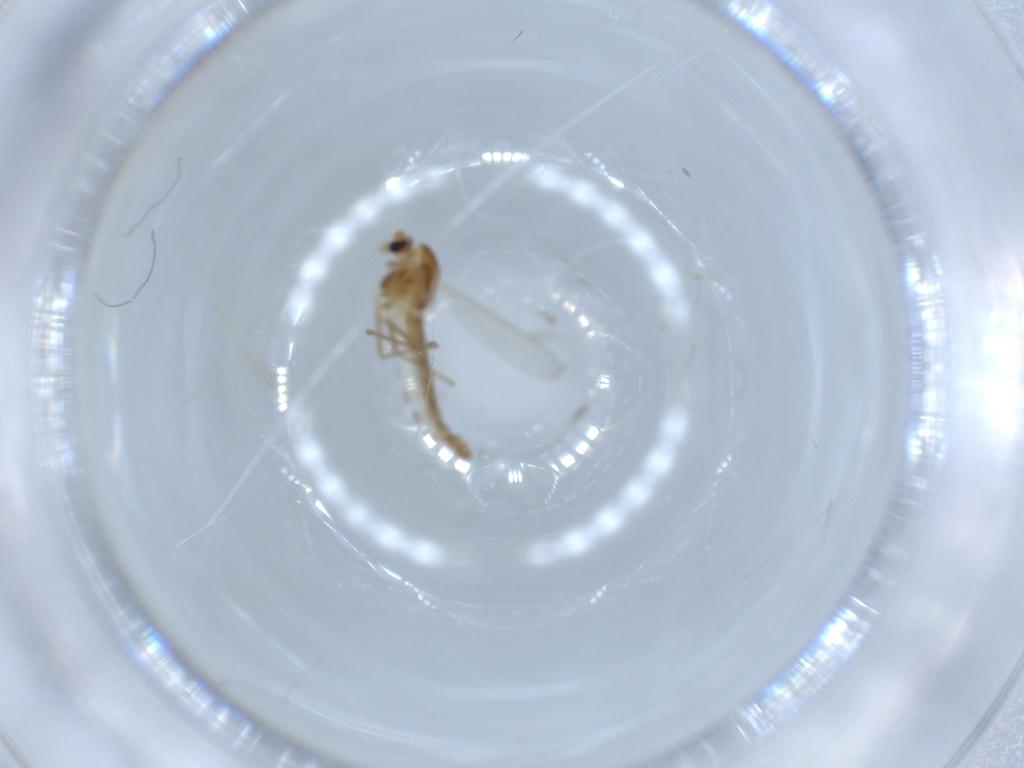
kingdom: Animalia
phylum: Arthropoda
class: Insecta
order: Diptera
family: Chironomidae
